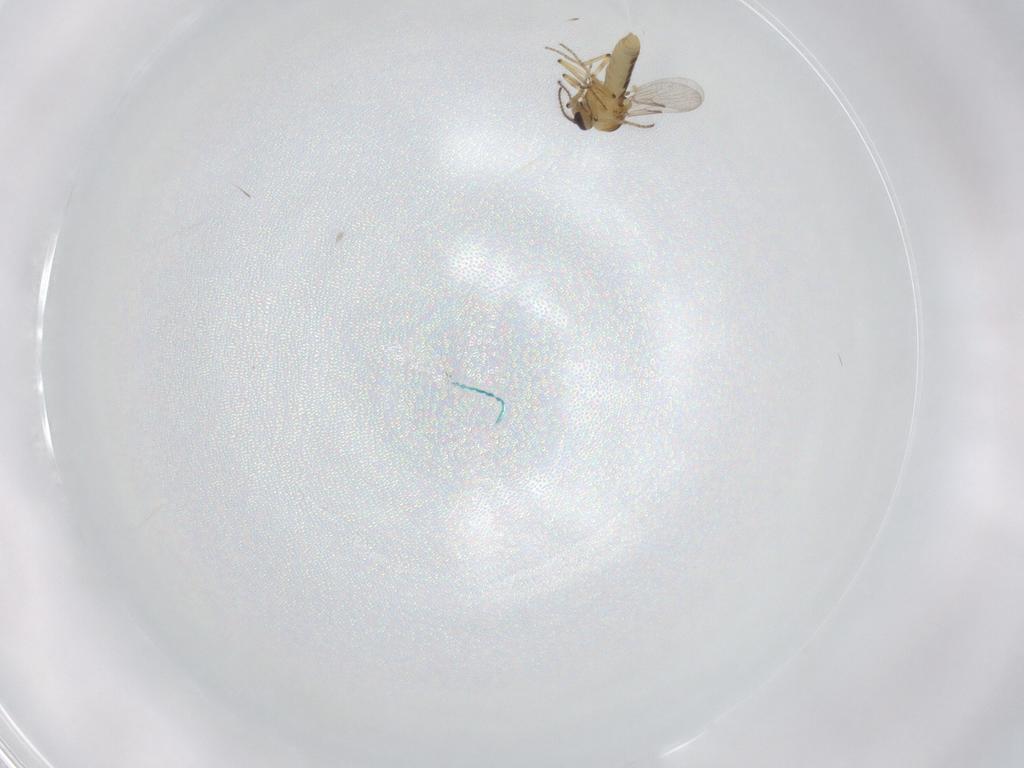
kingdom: Animalia
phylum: Arthropoda
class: Insecta
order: Diptera
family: Ceratopogonidae
